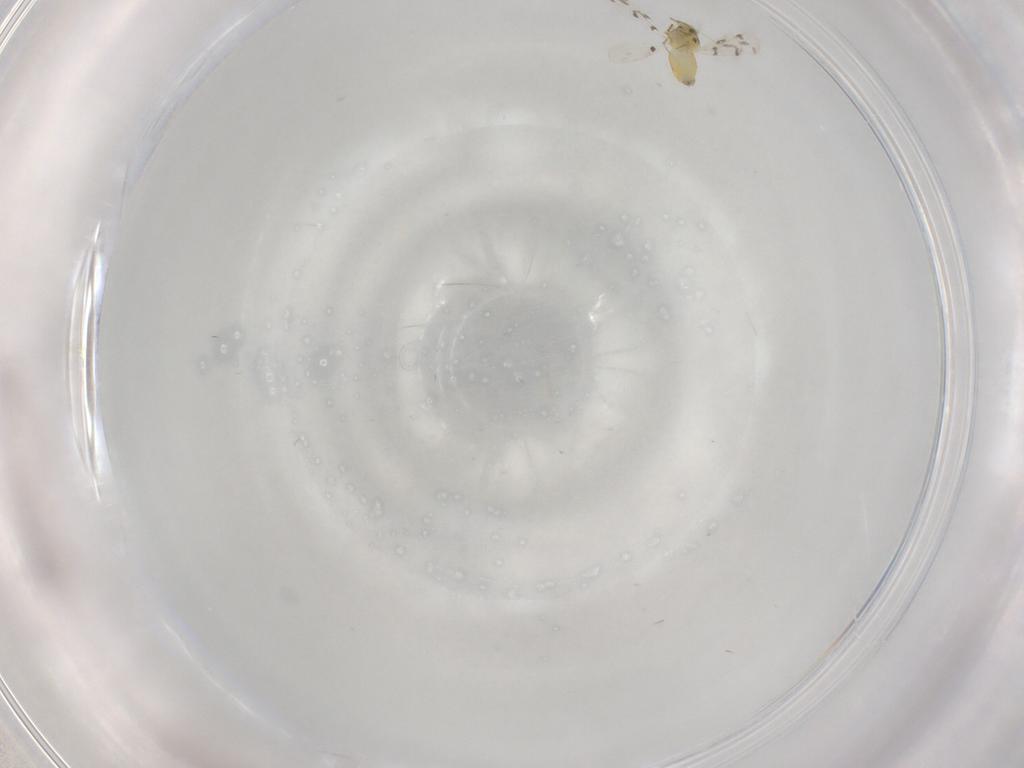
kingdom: Animalia
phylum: Arthropoda
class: Insecta
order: Hemiptera
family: Aleyrodidae
